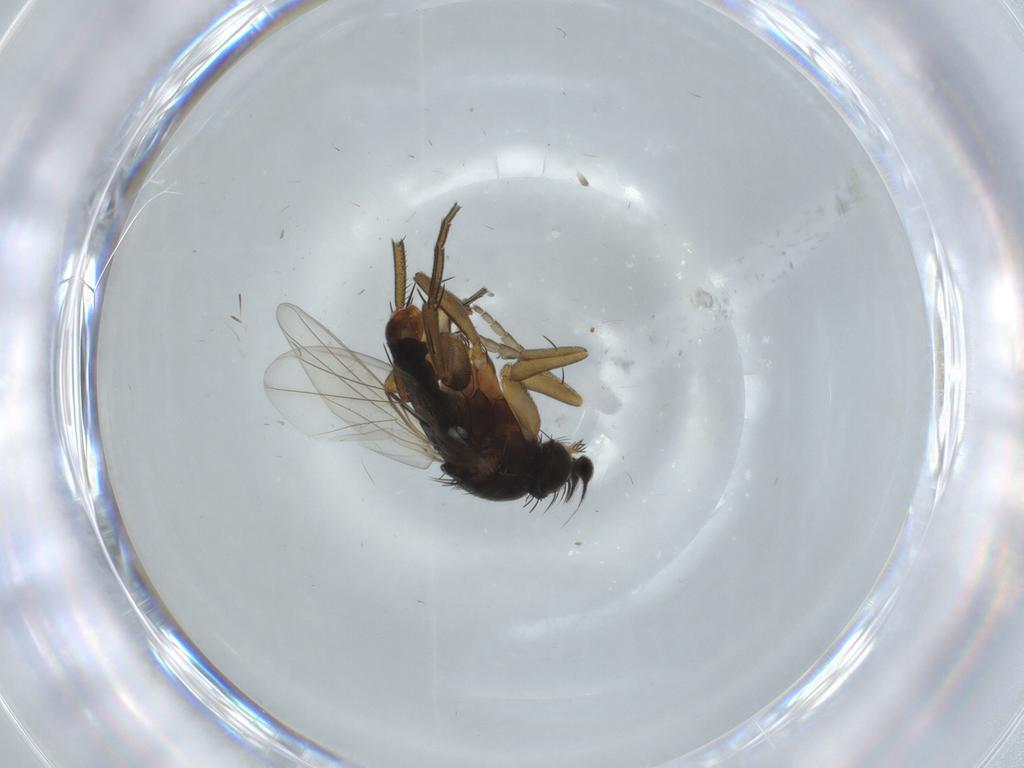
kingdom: Animalia
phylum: Arthropoda
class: Insecta
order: Diptera
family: Phoridae
